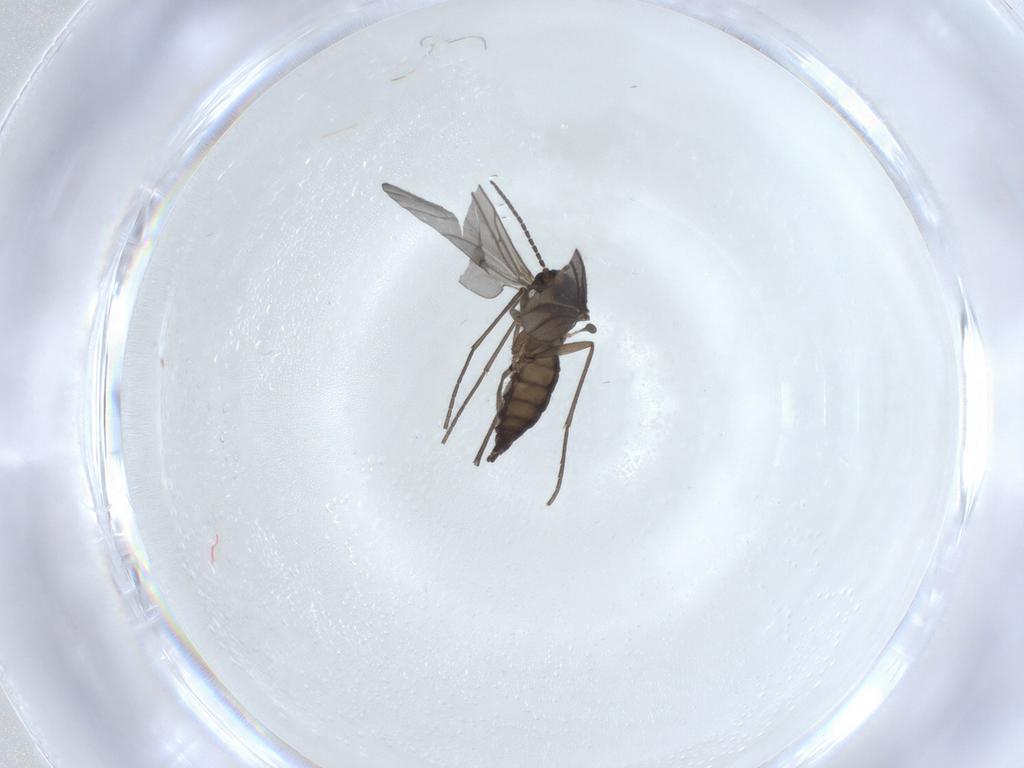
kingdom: Animalia
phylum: Arthropoda
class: Insecta
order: Diptera
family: Sciaridae
